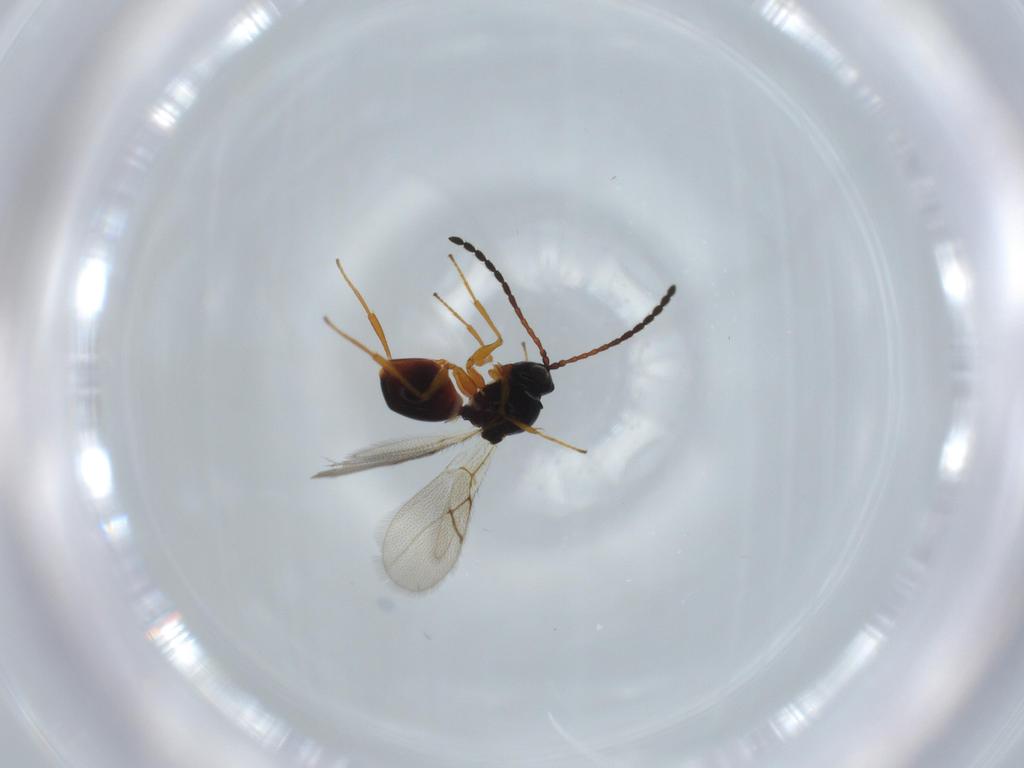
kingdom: Animalia
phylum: Arthropoda
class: Insecta
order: Hymenoptera
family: Figitidae
